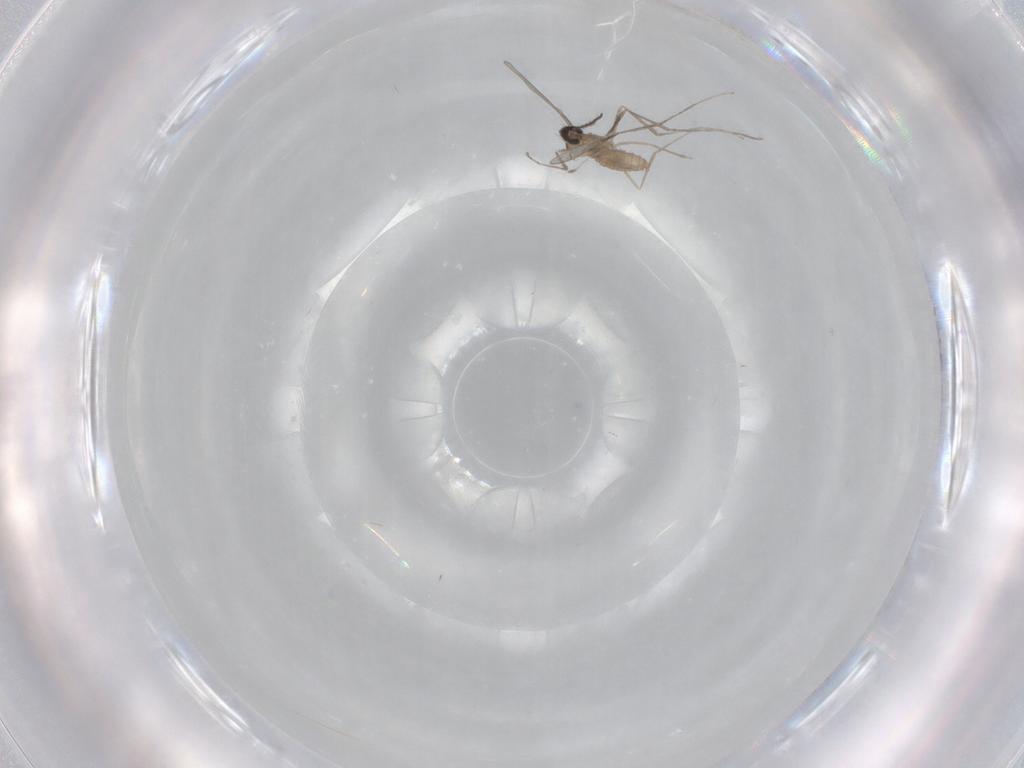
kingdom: Animalia
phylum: Arthropoda
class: Insecta
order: Diptera
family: Cecidomyiidae
